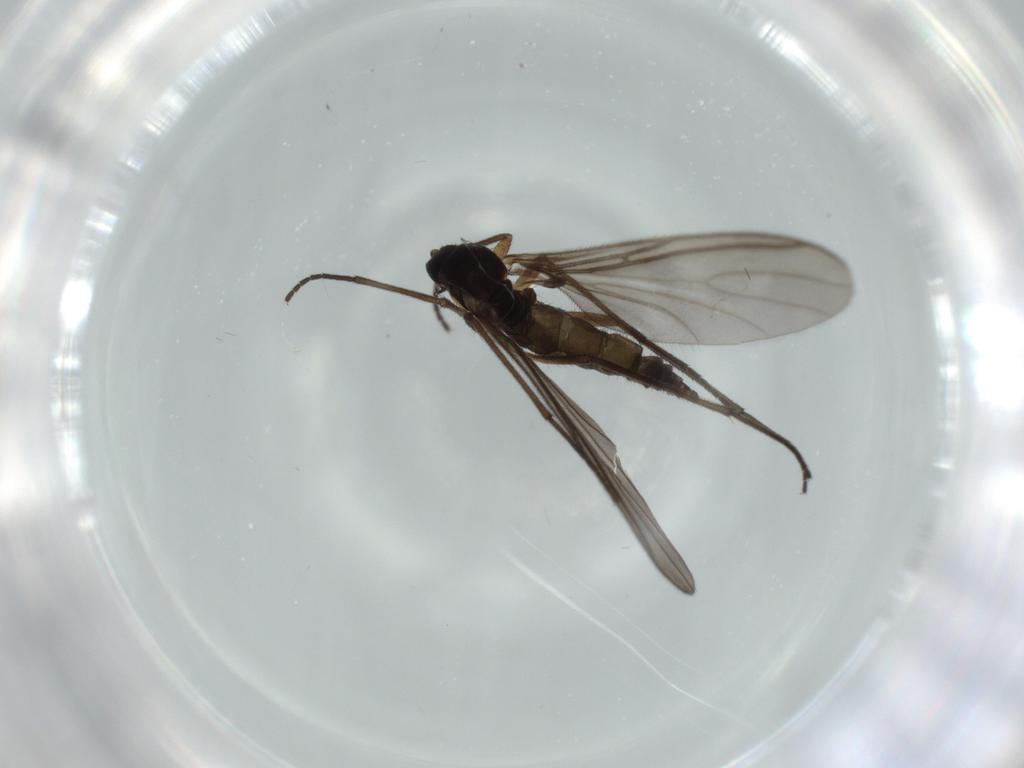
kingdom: Animalia
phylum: Arthropoda
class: Insecta
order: Diptera
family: Sciaridae
